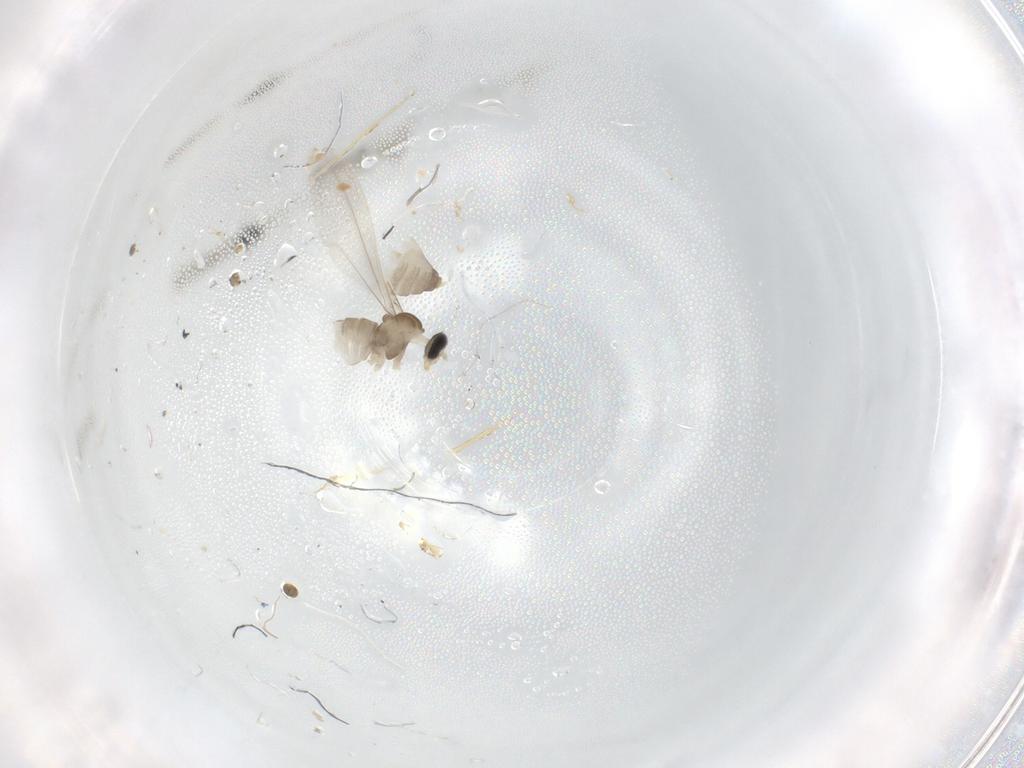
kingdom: Animalia
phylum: Arthropoda
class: Insecta
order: Diptera
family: Cecidomyiidae
